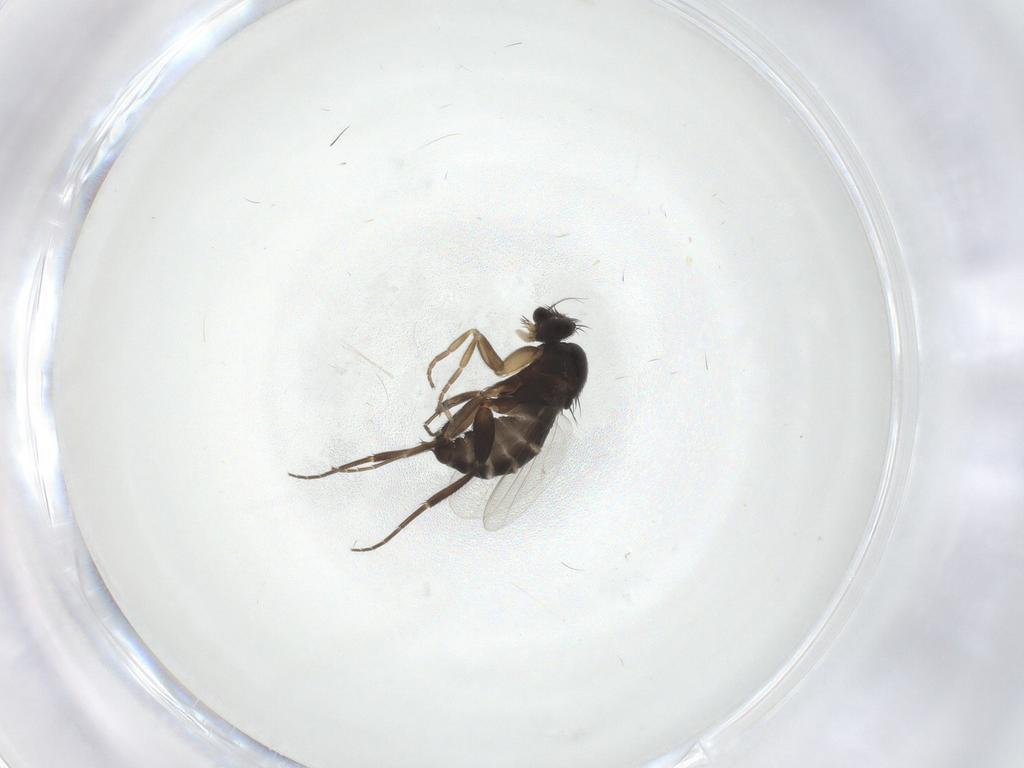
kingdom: Animalia
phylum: Arthropoda
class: Insecta
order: Diptera
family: Phoridae
